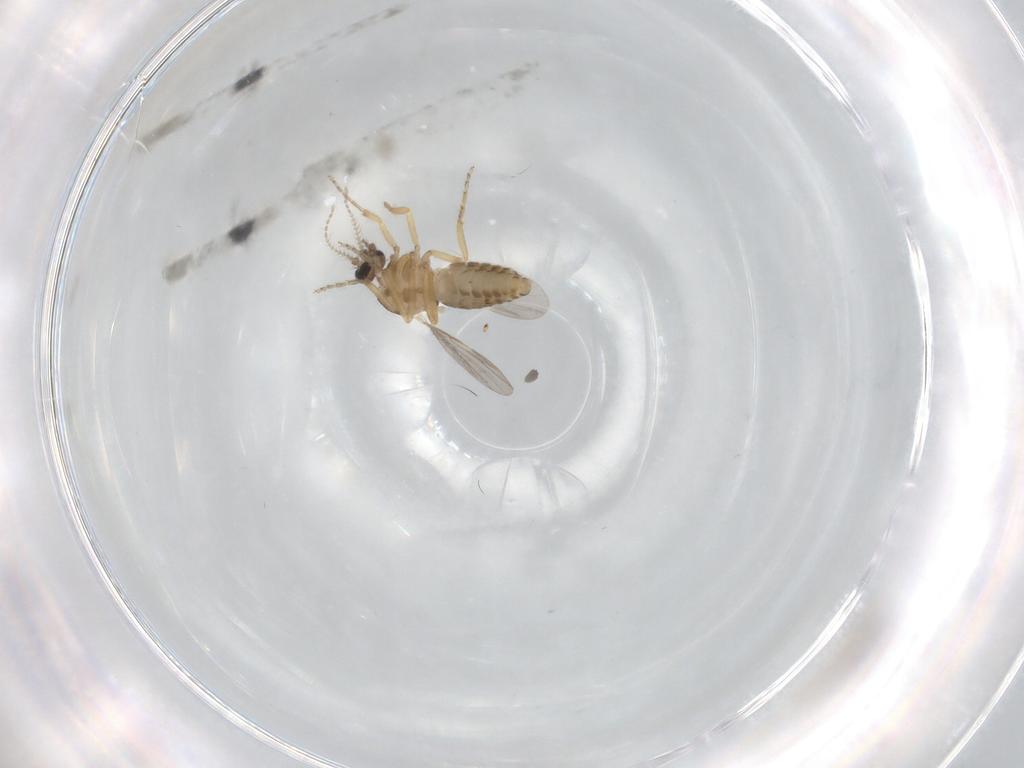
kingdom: Animalia
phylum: Arthropoda
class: Insecta
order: Diptera
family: Ceratopogonidae
